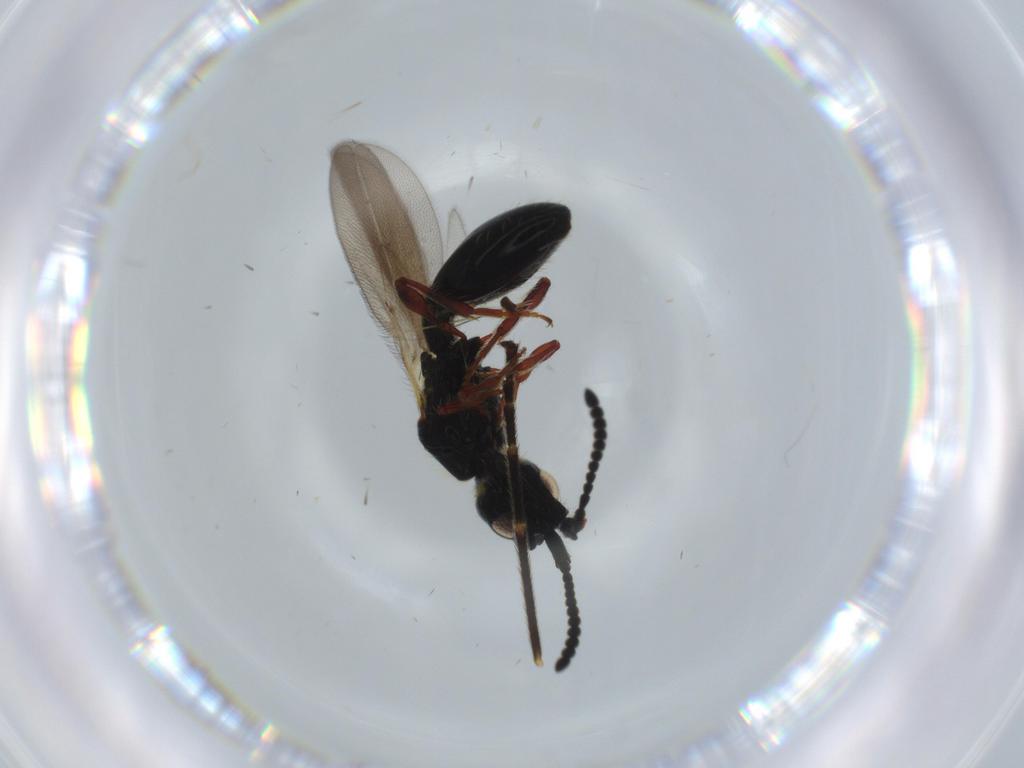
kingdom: Animalia
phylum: Arthropoda
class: Insecta
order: Hymenoptera
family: Diapriidae
